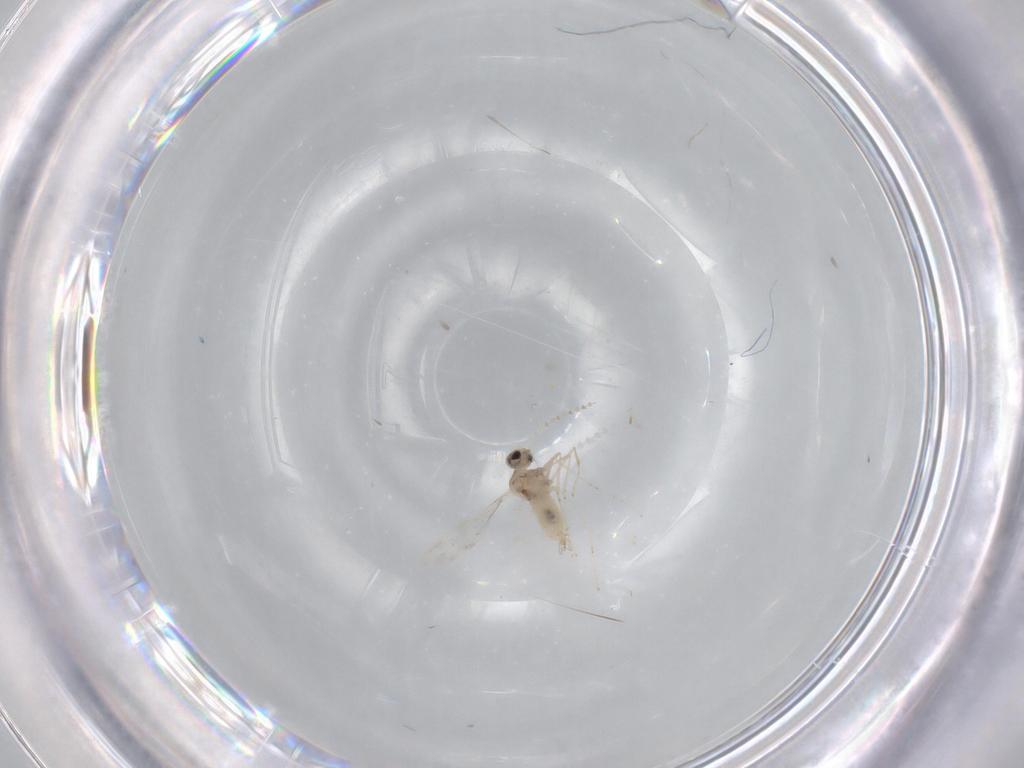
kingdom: Animalia
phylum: Arthropoda
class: Insecta
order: Diptera
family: Cecidomyiidae
